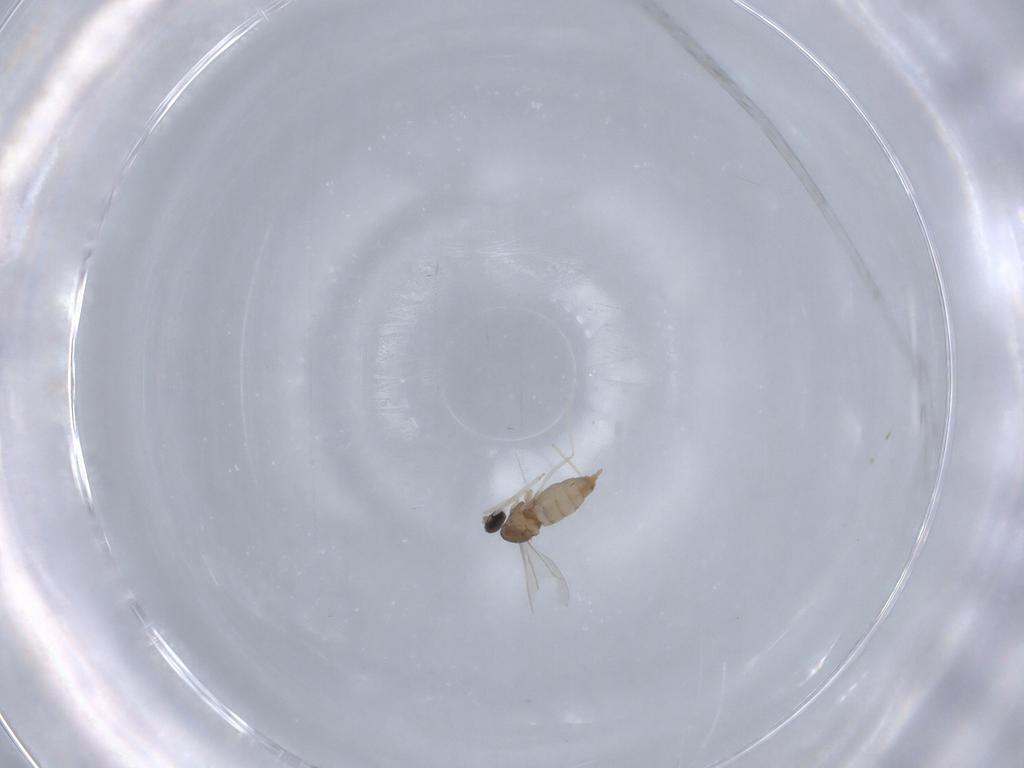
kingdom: Animalia
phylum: Arthropoda
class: Insecta
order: Diptera
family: Cecidomyiidae
